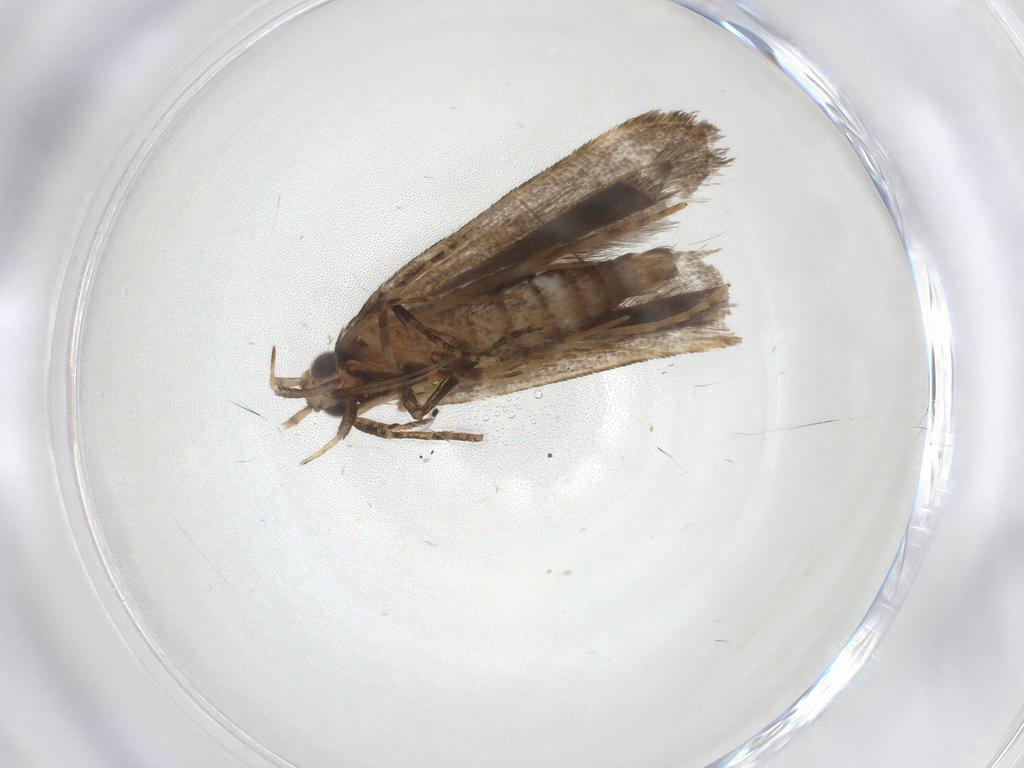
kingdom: Animalia
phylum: Arthropoda
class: Insecta
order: Lepidoptera
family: Gelechiidae
